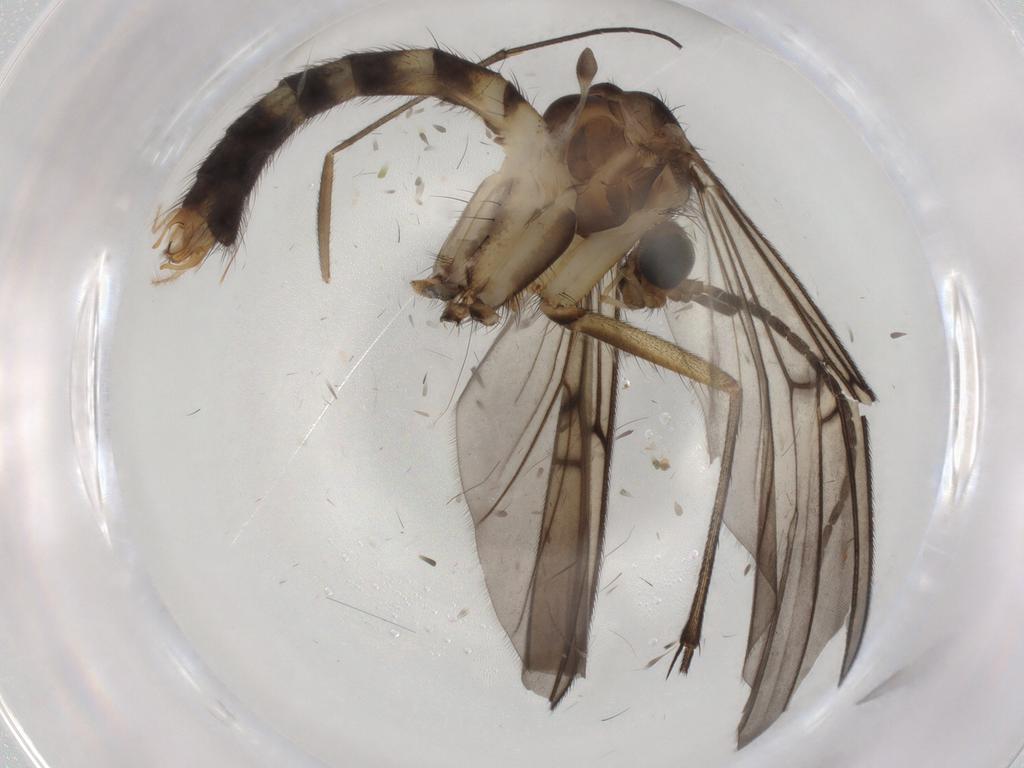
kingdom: Animalia
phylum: Arthropoda
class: Insecta
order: Diptera
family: Mycetophilidae
